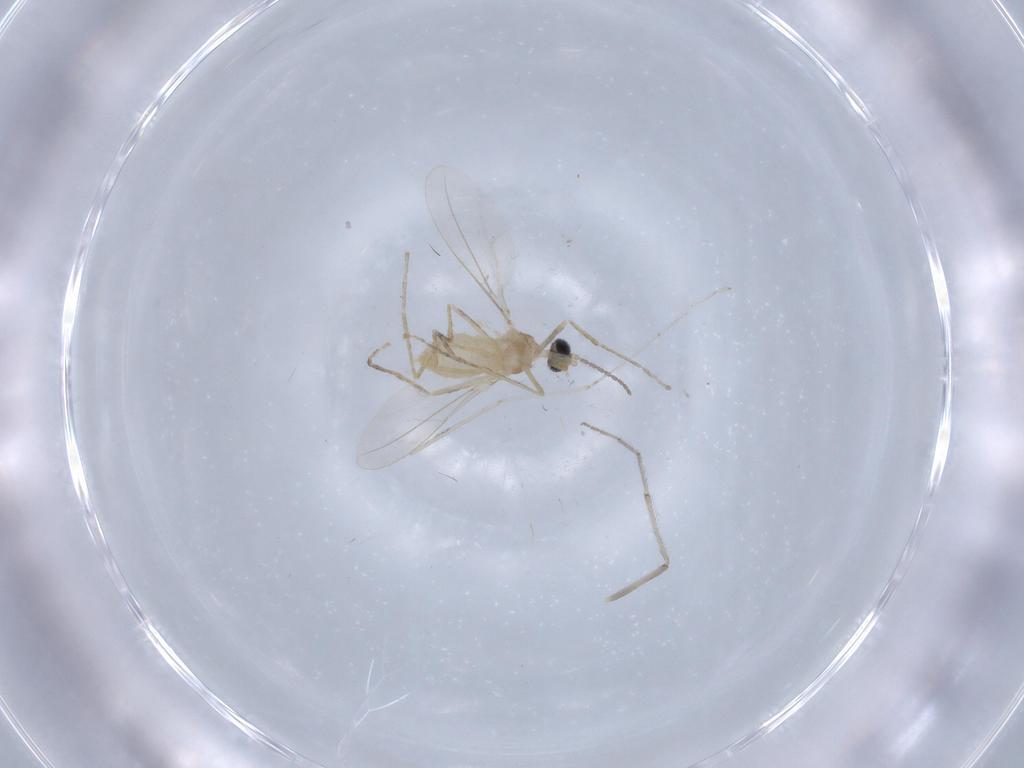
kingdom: Animalia
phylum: Arthropoda
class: Insecta
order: Diptera
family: Cecidomyiidae
